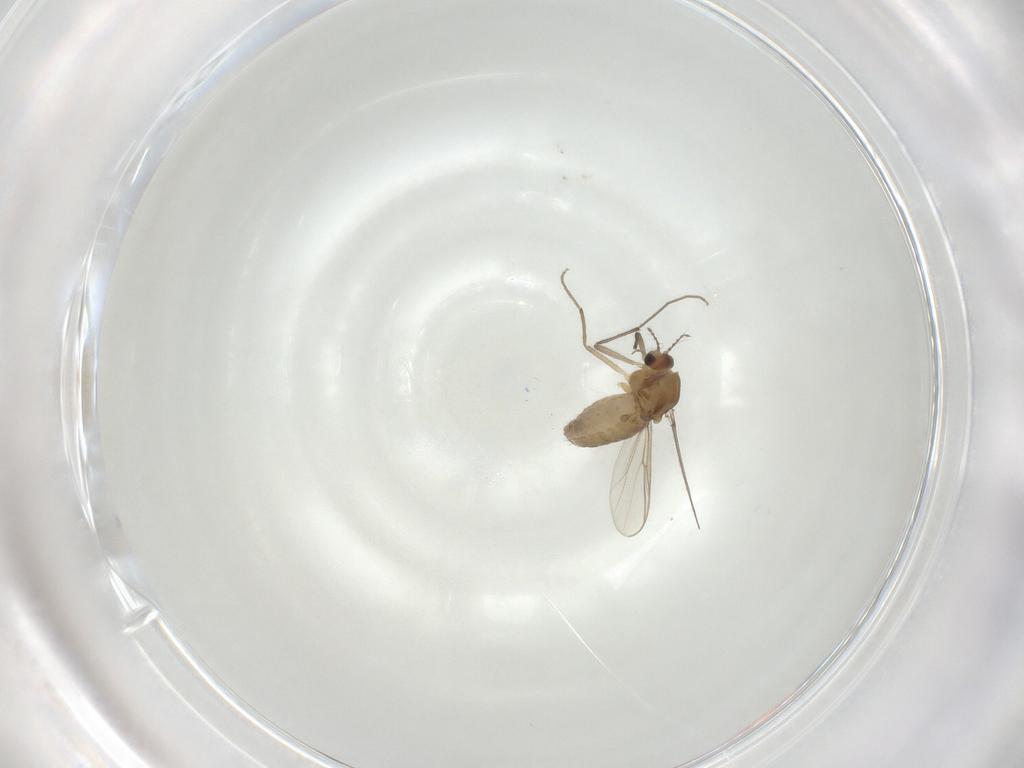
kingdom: Animalia
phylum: Arthropoda
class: Insecta
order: Diptera
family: Chironomidae
